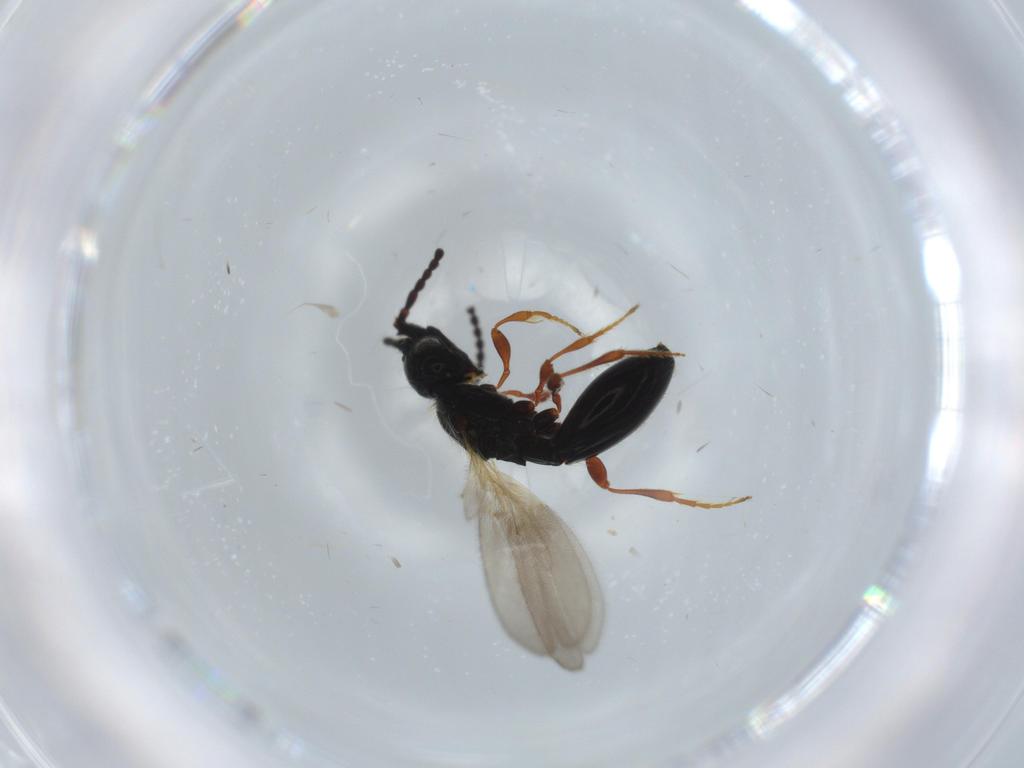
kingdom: Animalia
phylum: Arthropoda
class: Insecta
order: Hymenoptera
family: Diapriidae
